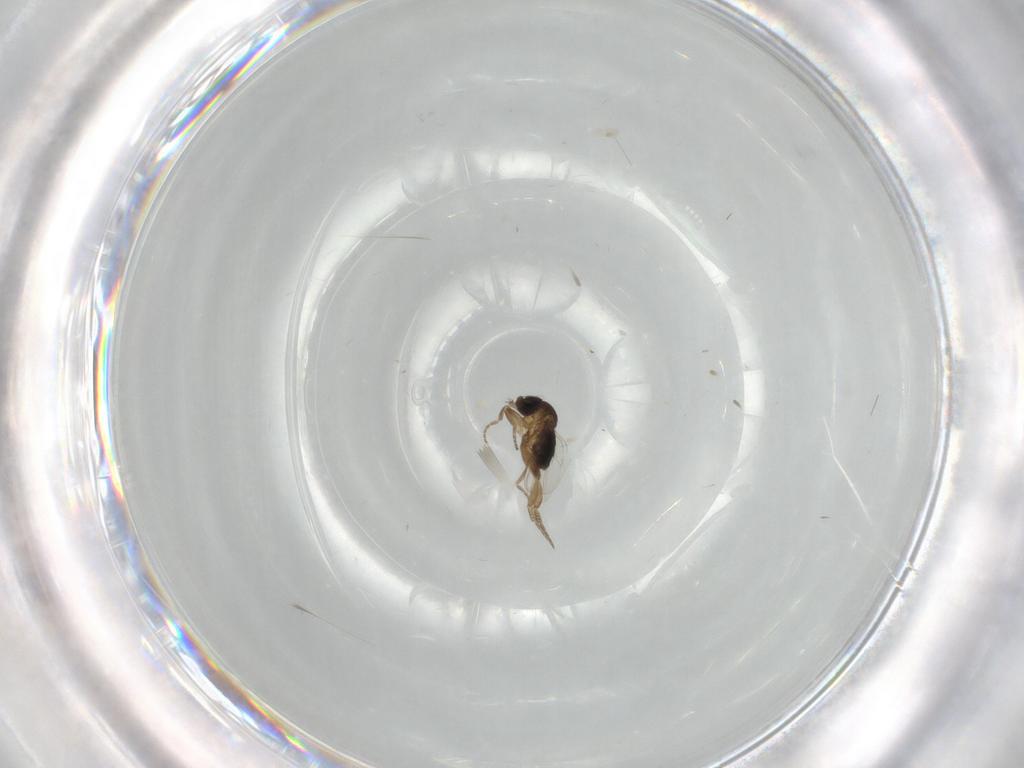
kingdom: Animalia
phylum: Arthropoda
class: Insecta
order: Diptera
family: Phoridae
